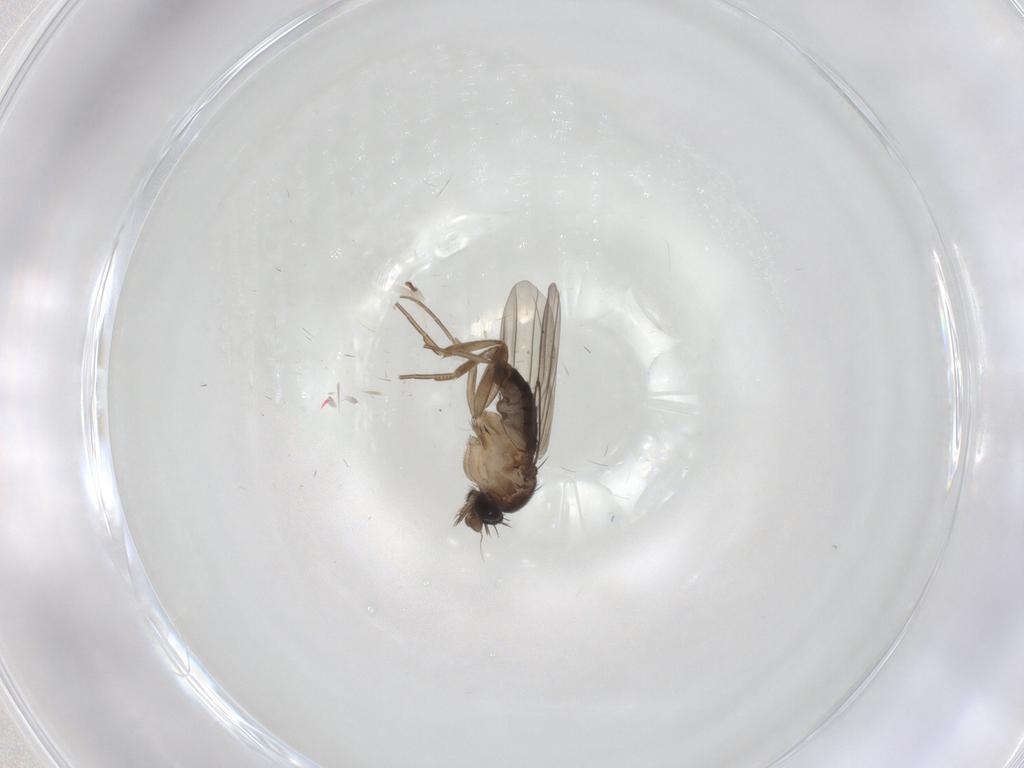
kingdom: Animalia
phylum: Arthropoda
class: Insecta
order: Diptera
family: Phoridae
